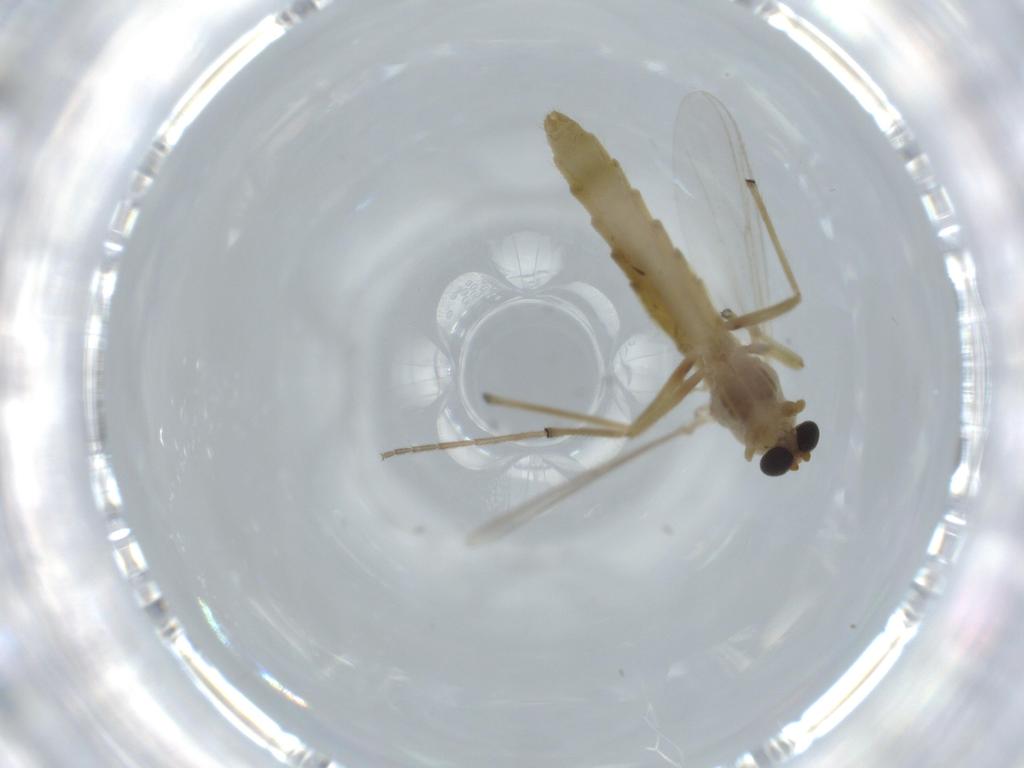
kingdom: Animalia
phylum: Arthropoda
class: Insecta
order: Diptera
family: Chironomidae
